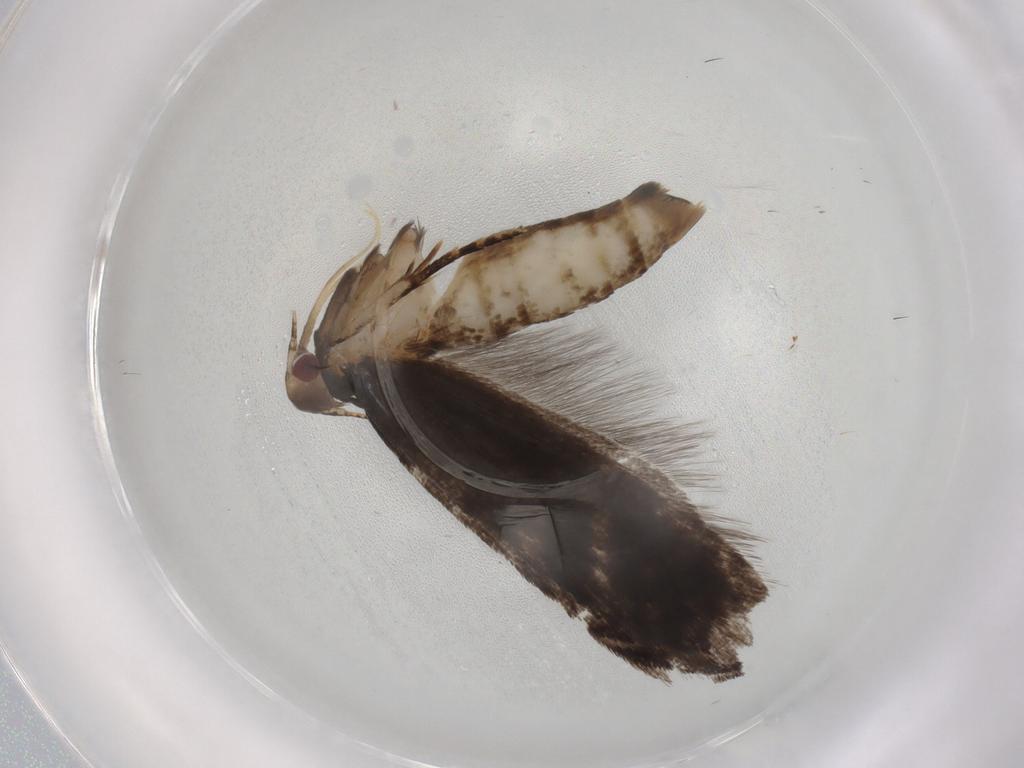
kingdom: Animalia
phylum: Arthropoda
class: Insecta
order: Lepidoptera
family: Gelechiidae
